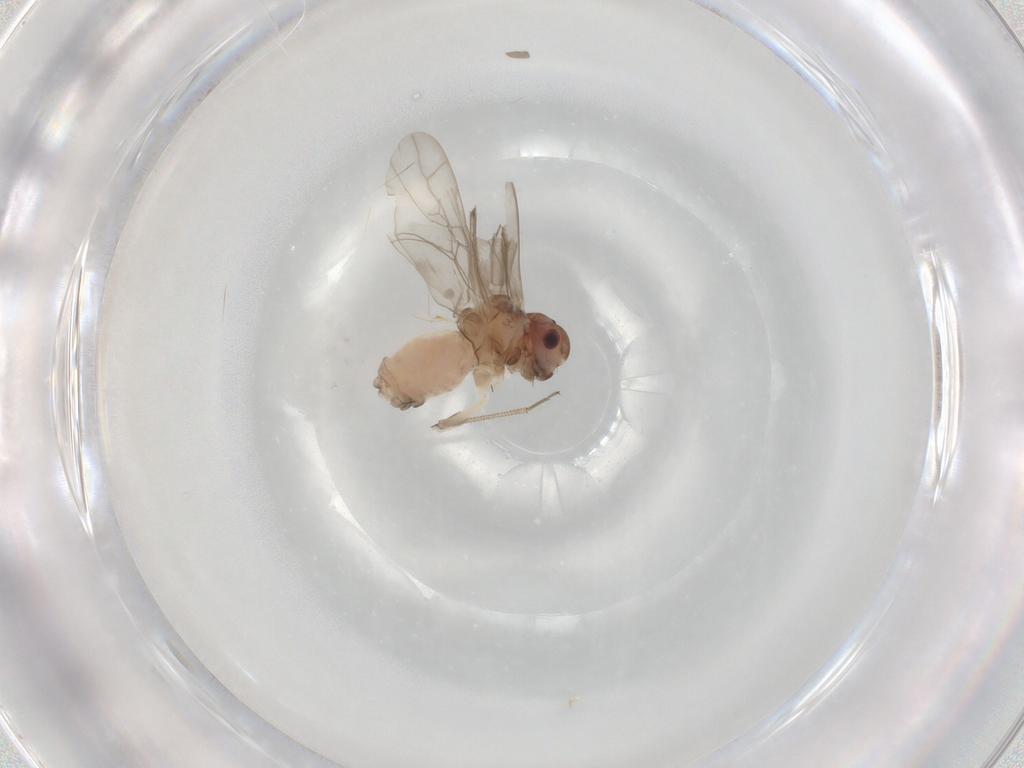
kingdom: Animalia
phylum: Arthropoda
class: Insecta
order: Psocodea
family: Peripsocidae
